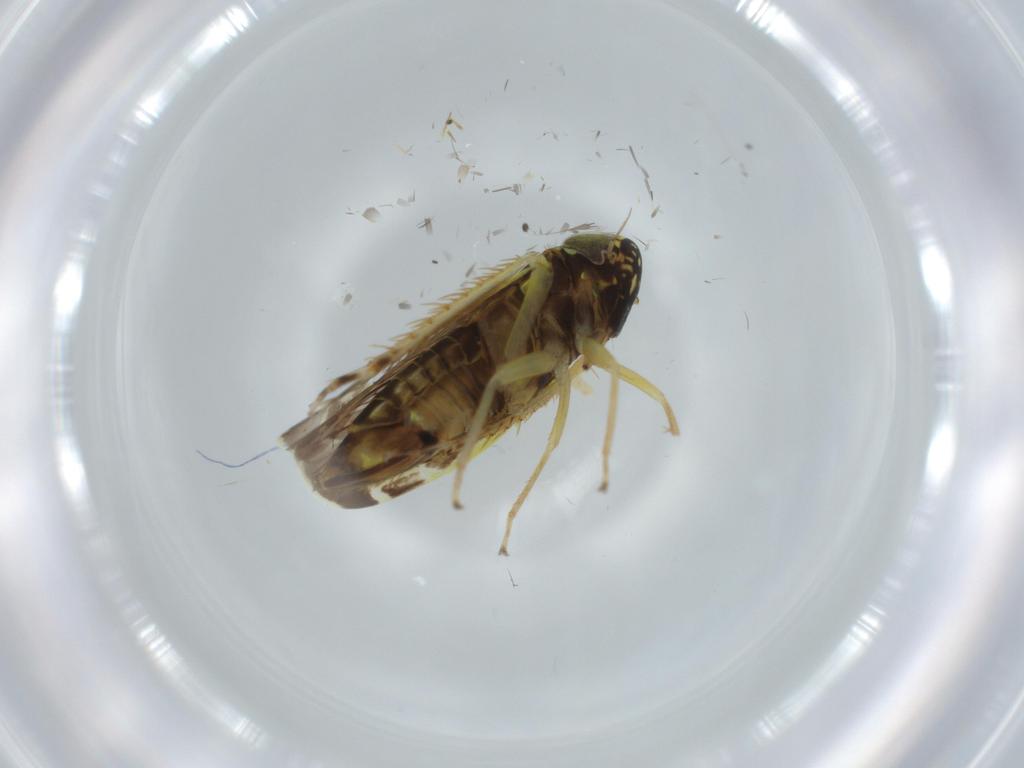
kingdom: Animalia
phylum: Arthropoda
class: Insecta
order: Hemiptera
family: Cicadellidae
